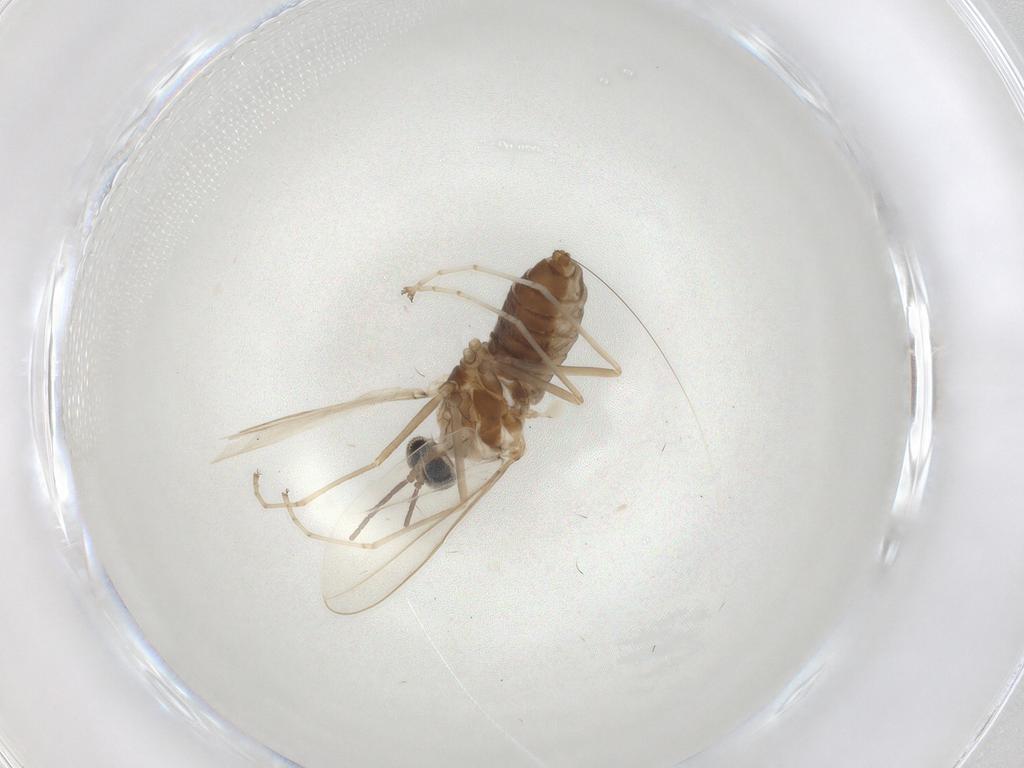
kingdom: Animalia
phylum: Arthropoda
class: Insecta
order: Diptera
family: Cecidomyiidae
